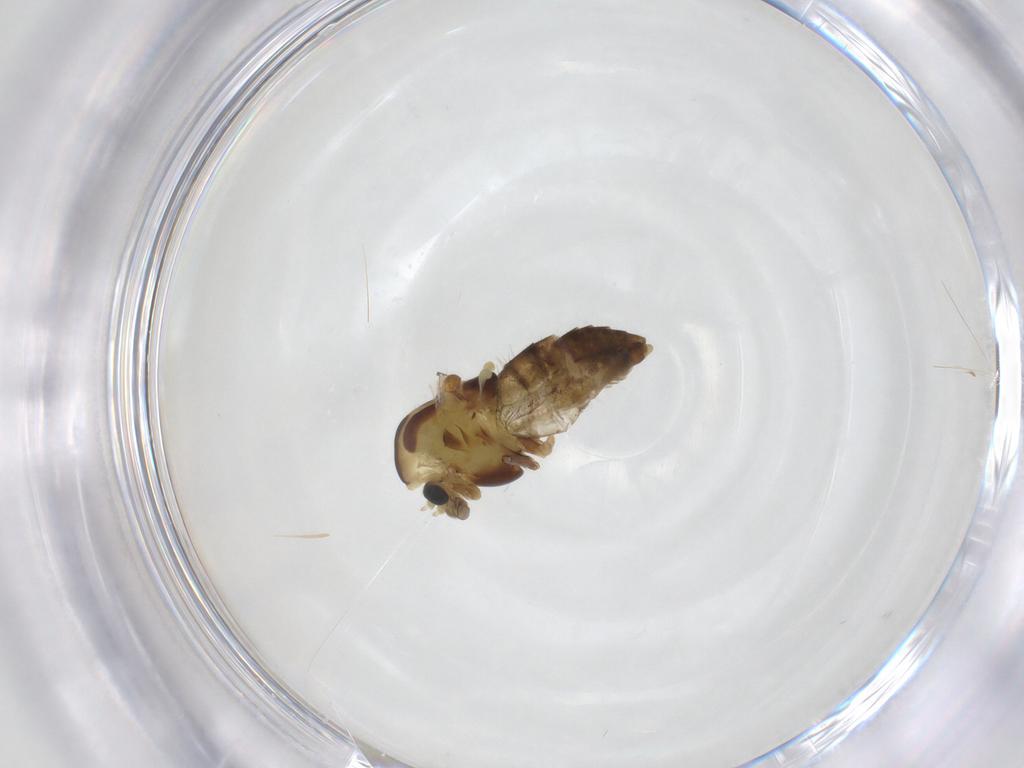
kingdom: Animalia
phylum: Arthropoda
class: Insecta
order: Diptera
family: Chironomidae
